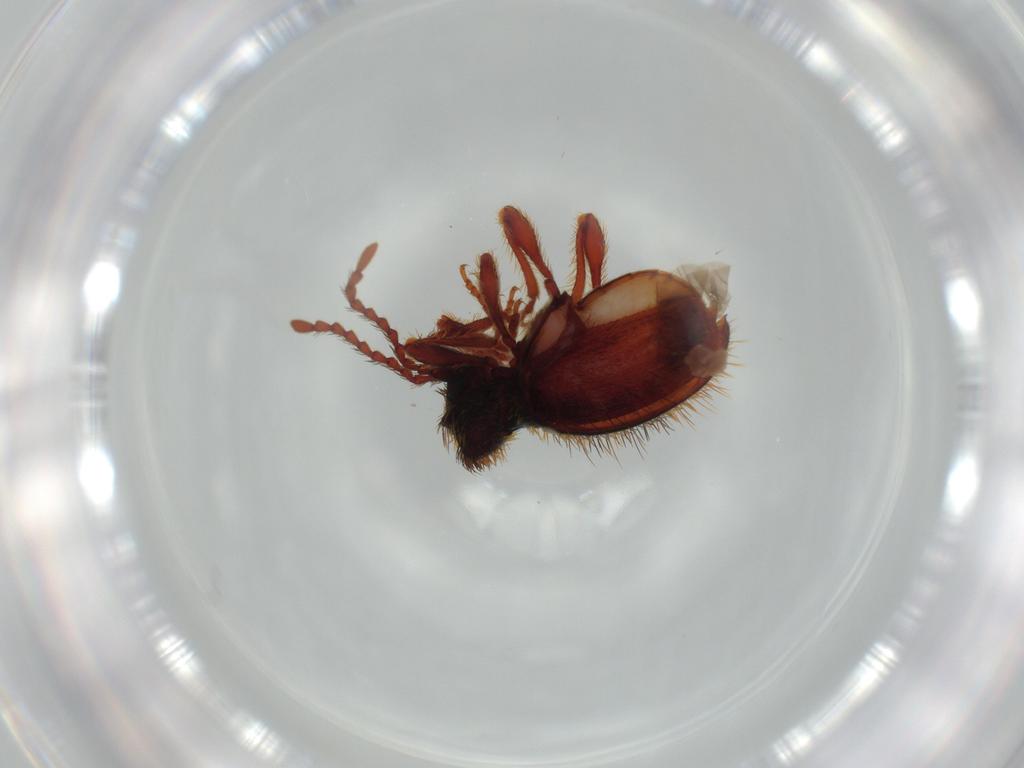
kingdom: Animalia
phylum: Arthropoda
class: Insecta
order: Coleoptera
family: Ptinidae
